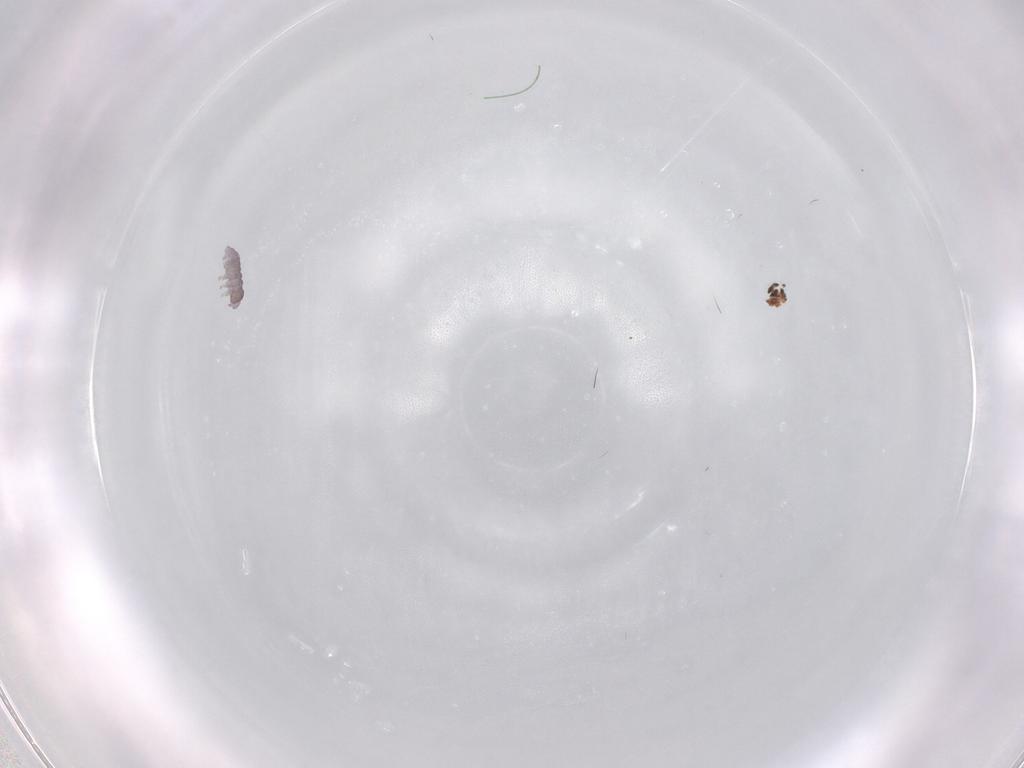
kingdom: Animalia
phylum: Arthropoda
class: Collembola
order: Poduromorpha
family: Hypogastruridae
